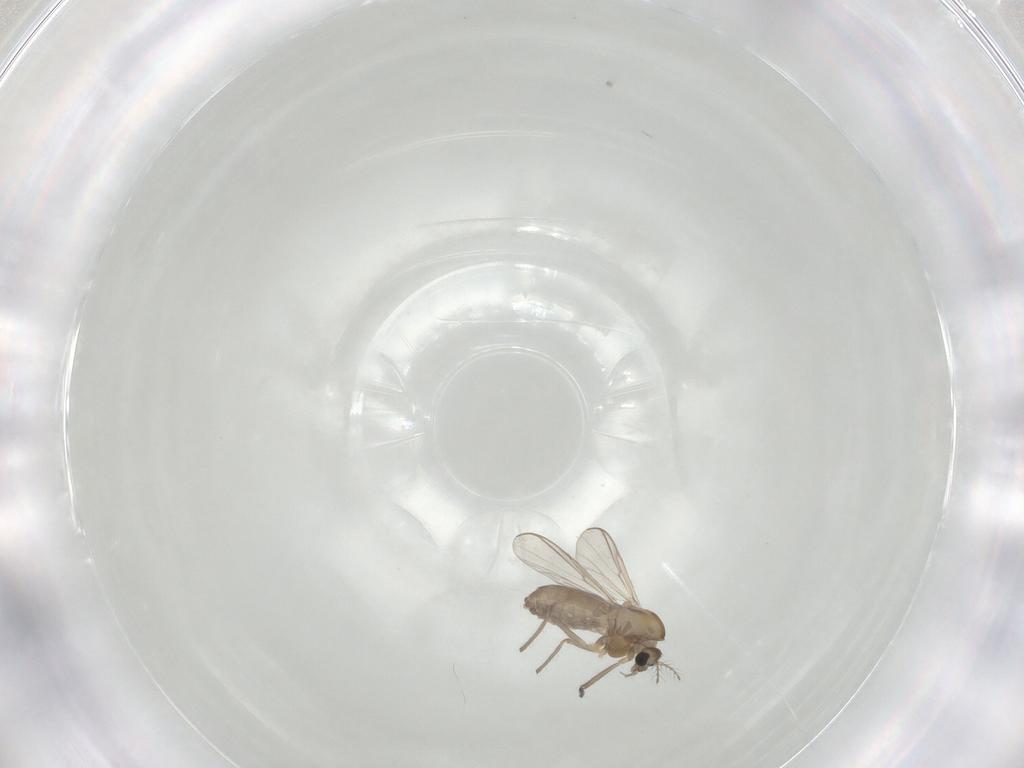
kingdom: Animalia
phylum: Arthropoda
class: Insecta
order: Diptera
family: Chironomidae
